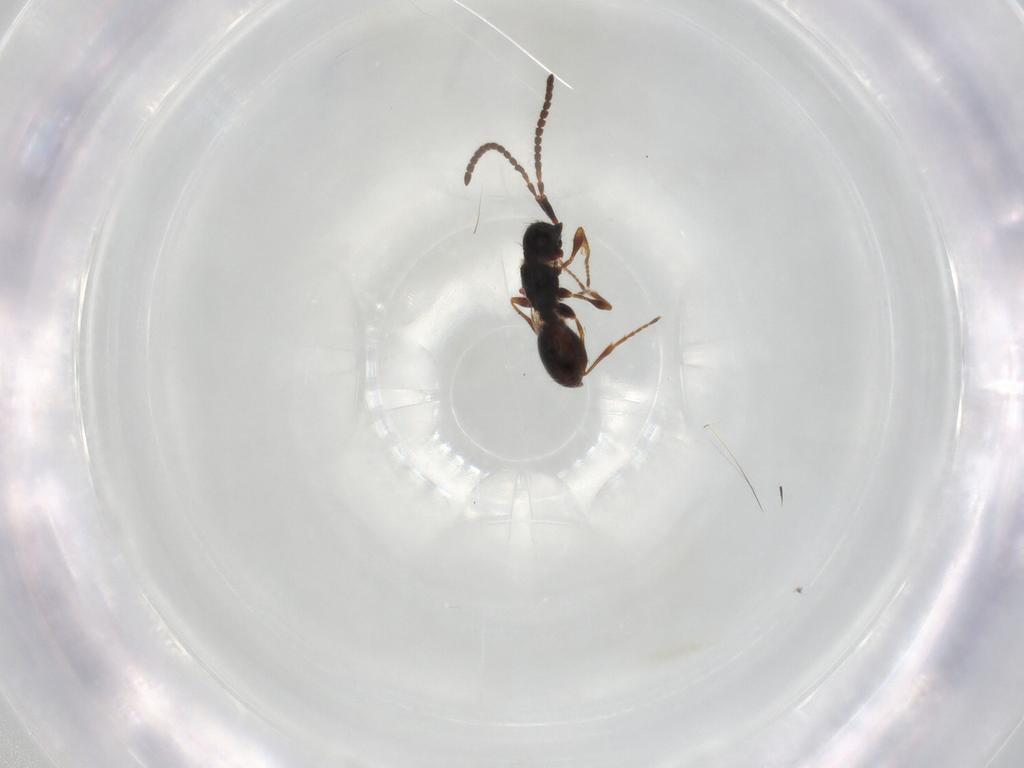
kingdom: Animalia
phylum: Arthropoda
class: Insecta
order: Hymenoptera
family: Diapriidae
